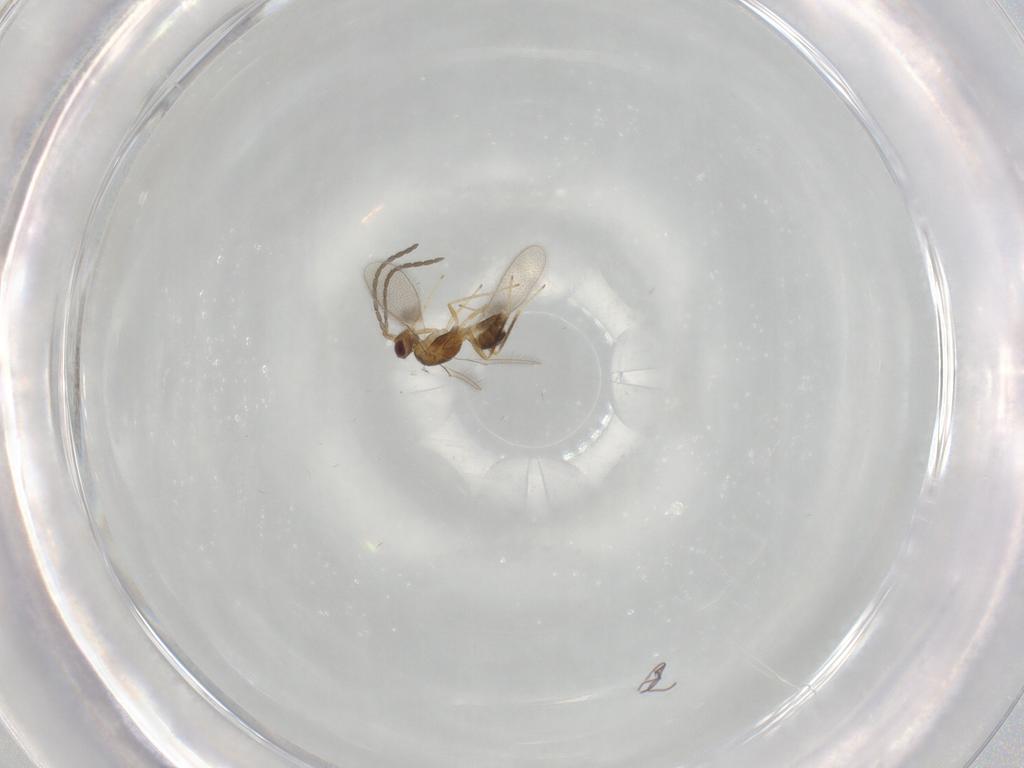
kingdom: Animalia
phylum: Arthropoda
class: Insecta
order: Hymenoptera
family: Mymaridae
